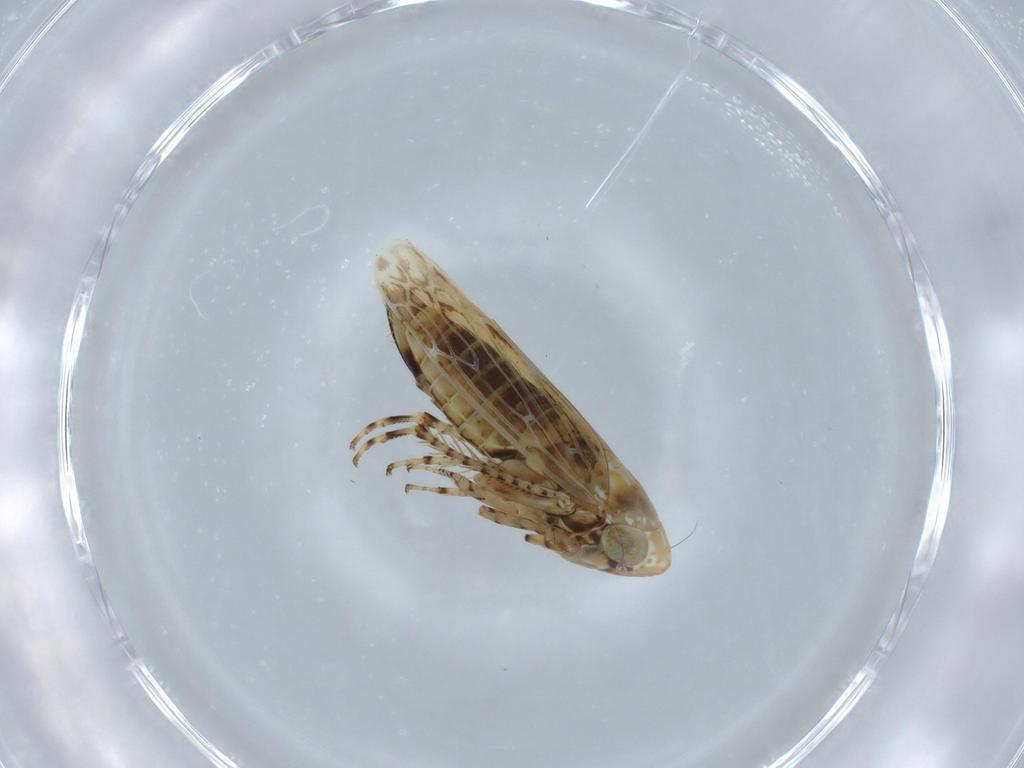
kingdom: Animalia
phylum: Arthropoda
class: Insecta
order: Hemiptera
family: Cicadellidae
